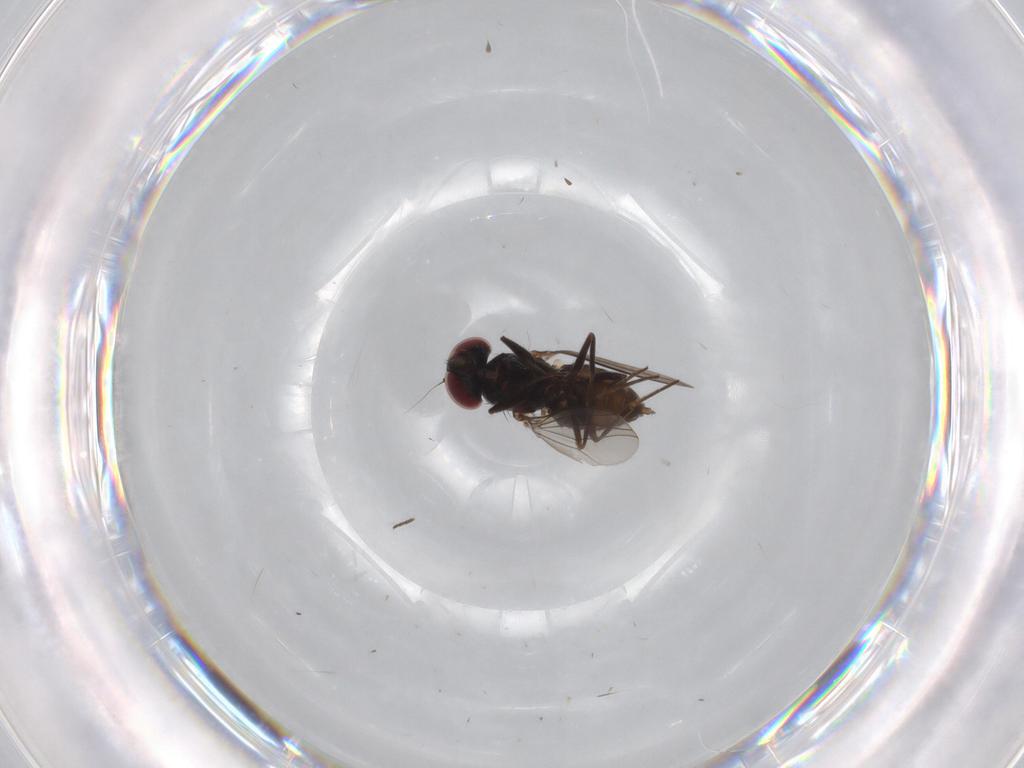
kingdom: Animalia
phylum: Arthropoda
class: Insecta
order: Diptera
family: Dolichopodidae
